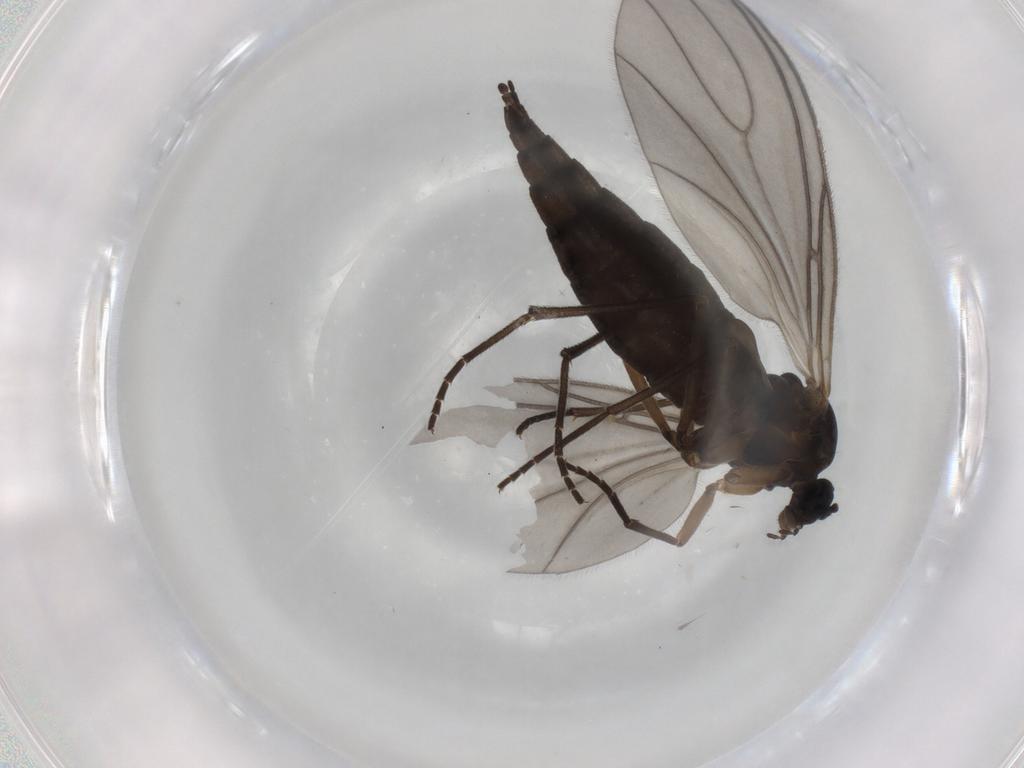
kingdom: Animalia
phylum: Arthropoda
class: Insecta
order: Diptera
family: Sciaridae
